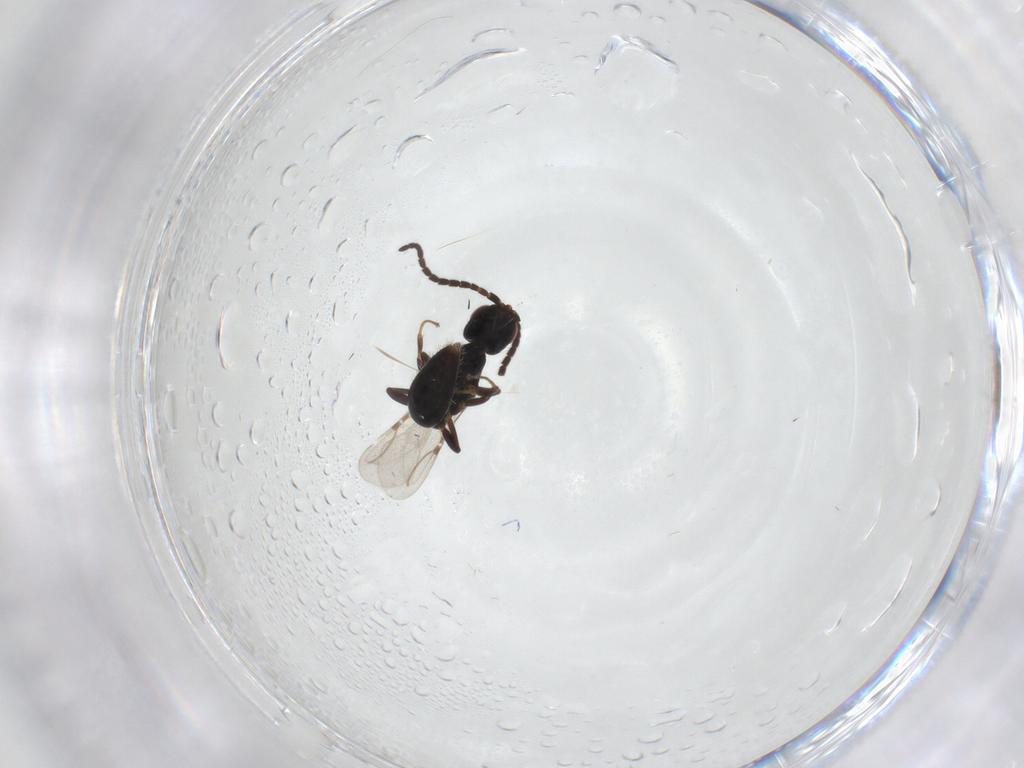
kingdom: Animalia
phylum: Arthropoda
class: Insecta
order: Hymenoptera
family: Bethylidae
